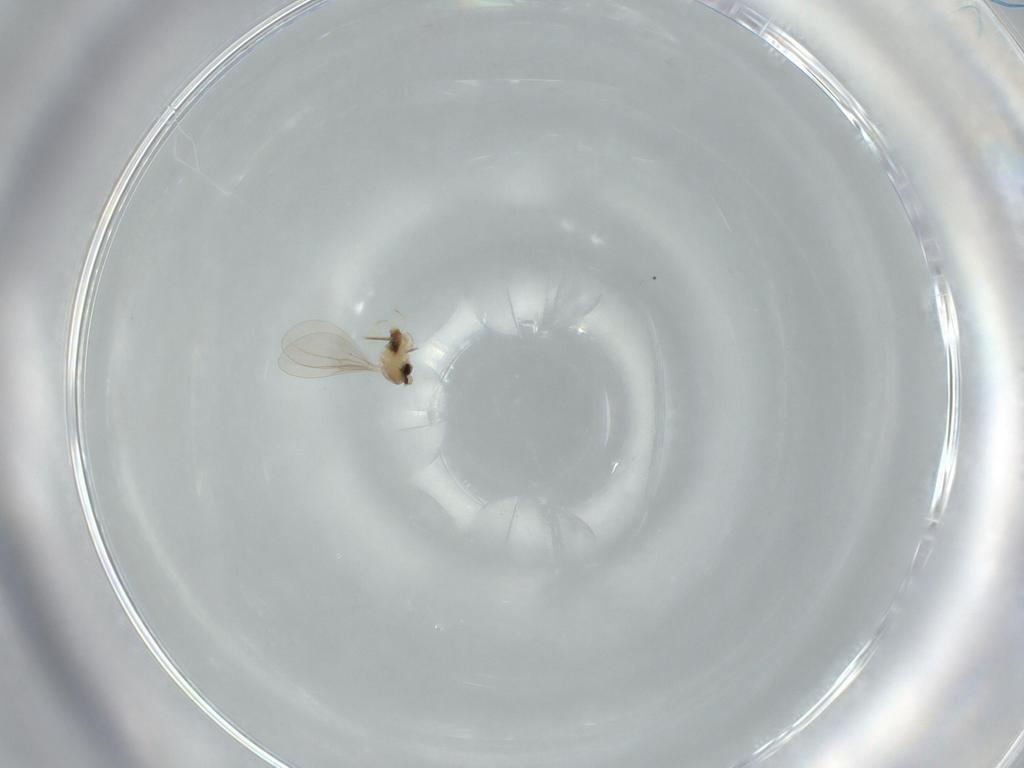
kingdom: Animalia
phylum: Arthropoda
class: Insecta
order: Diptera
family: Cecidomyiidae
